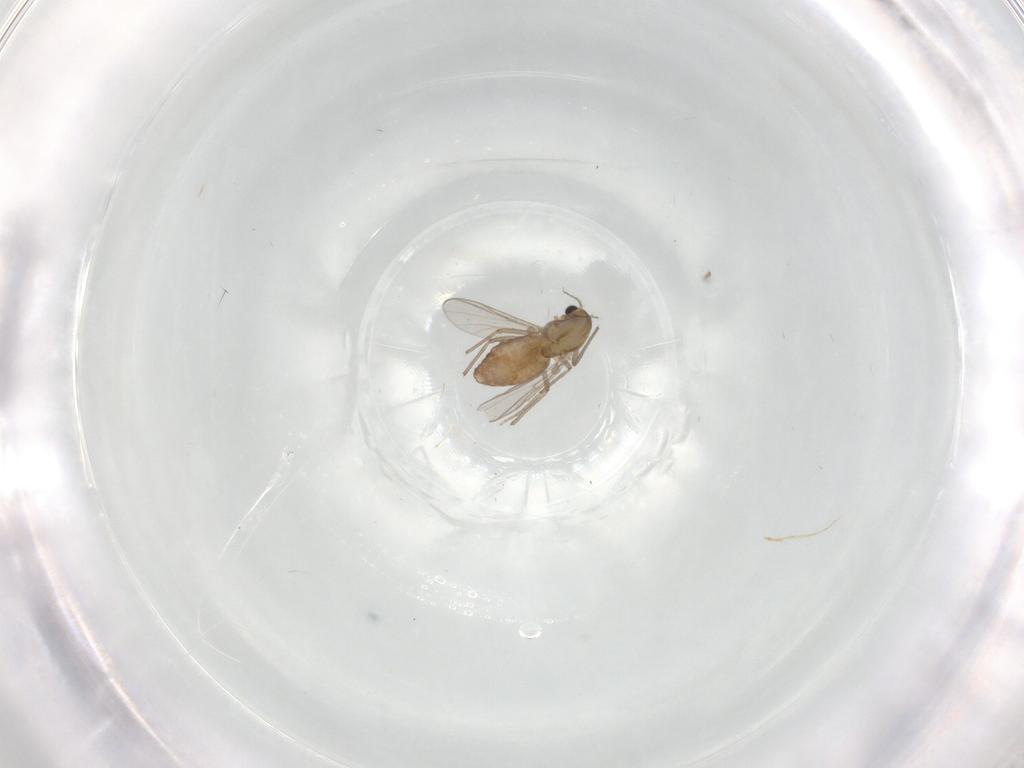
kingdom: Animalia
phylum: Arthropoda
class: Insecta
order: Diptera
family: Chironomidae
